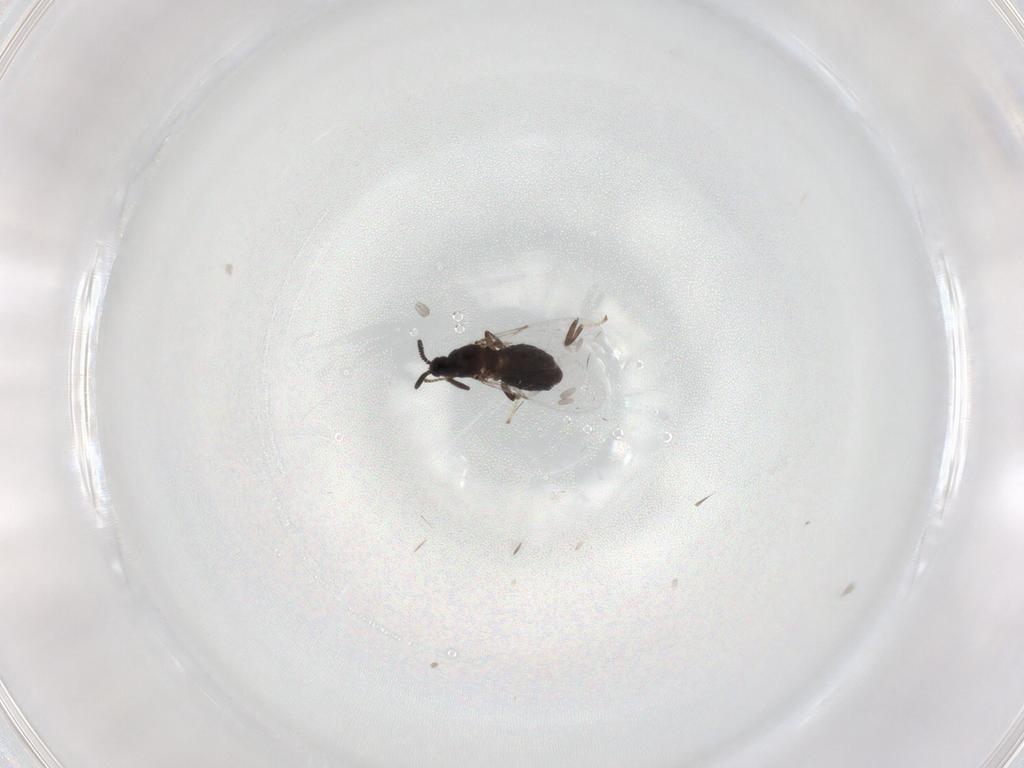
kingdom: Animalia
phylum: Arthropoda
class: Insecta
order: Diptera
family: Scatopsidae
